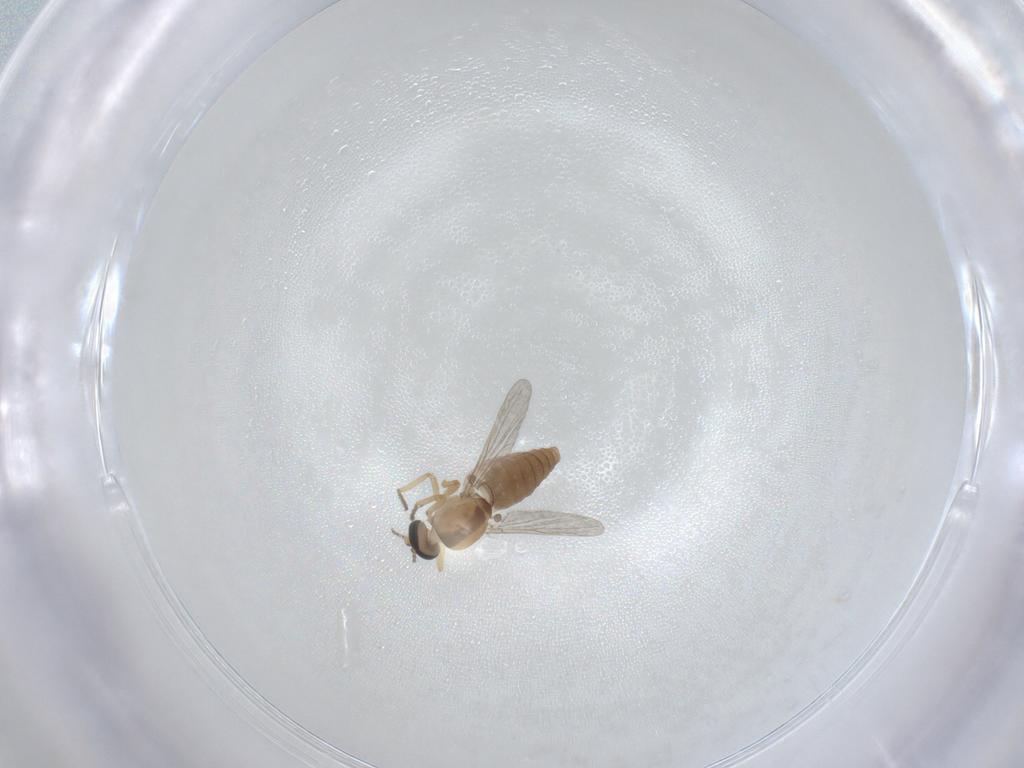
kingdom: Animalia
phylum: Arthropoda
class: Insecta
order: Diptera
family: Ceratopogonidae
